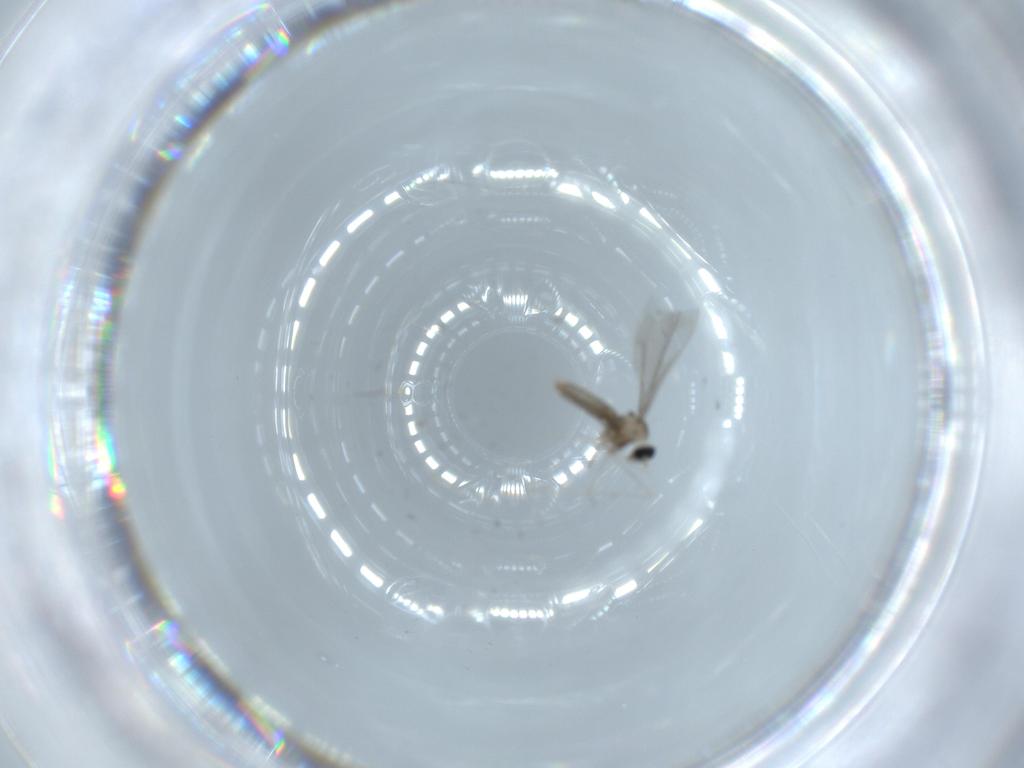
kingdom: Animalia
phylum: Arthropoda
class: Insecta
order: Diptera
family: Cecidomyiidae
